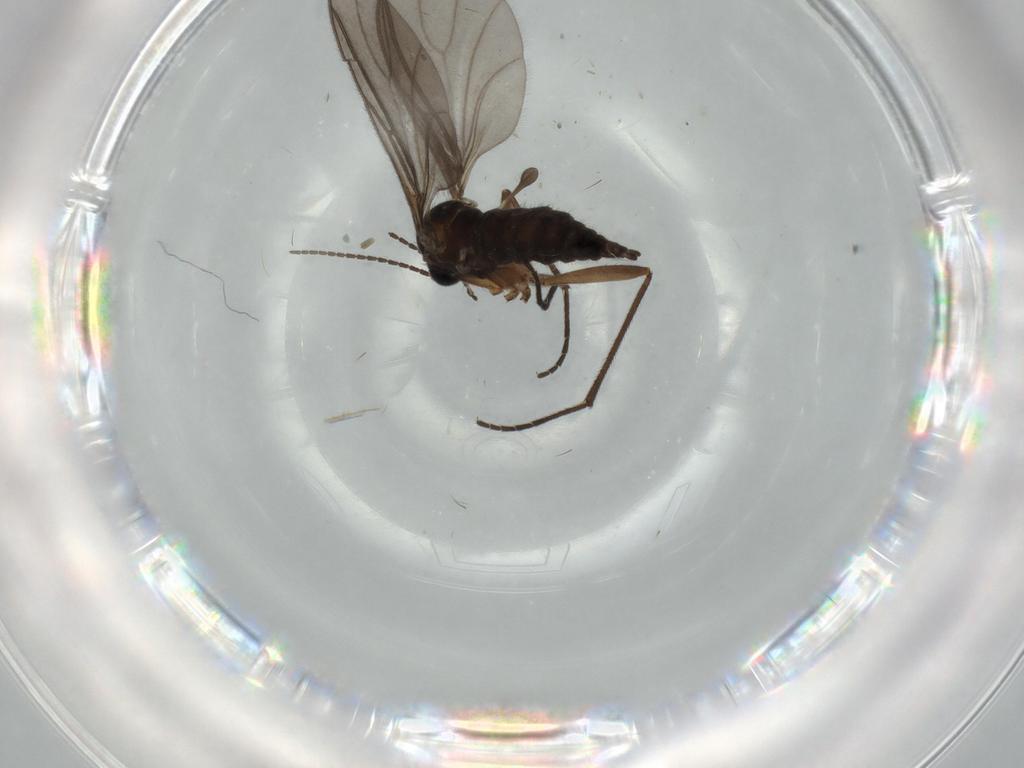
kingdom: Animalia
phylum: Arthropoda
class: Insecta
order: Diptera
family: Sciaridae
